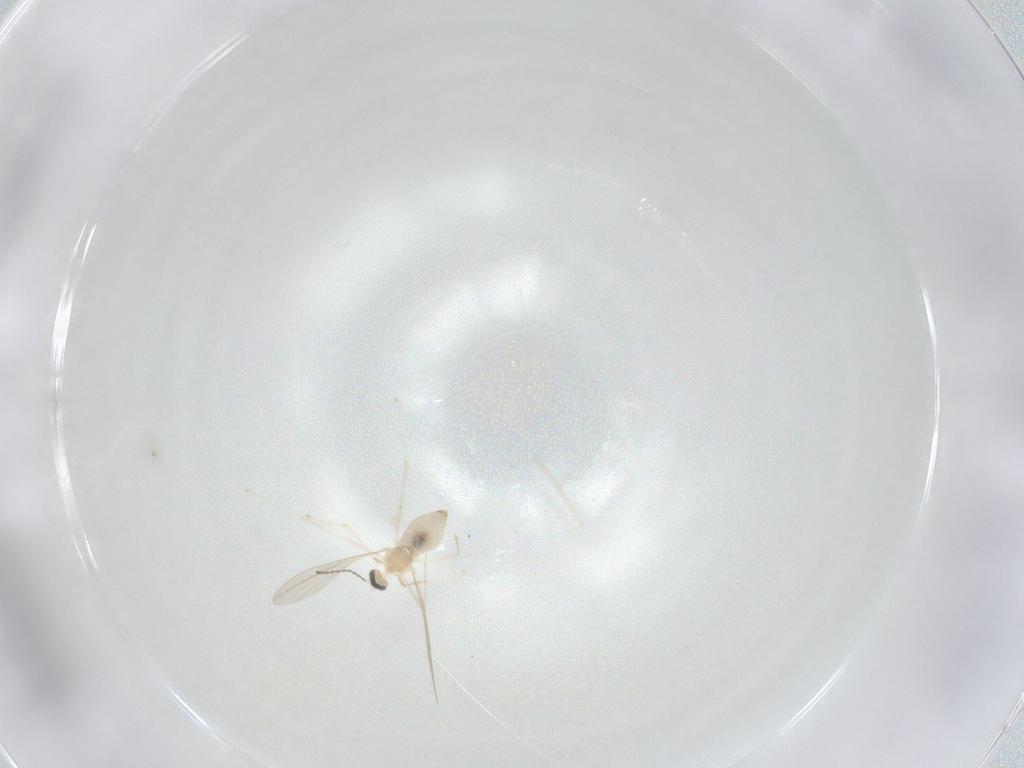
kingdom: Animalia
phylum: Arthropoda
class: Insecta
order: Diptera
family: Cecidomyiidae
